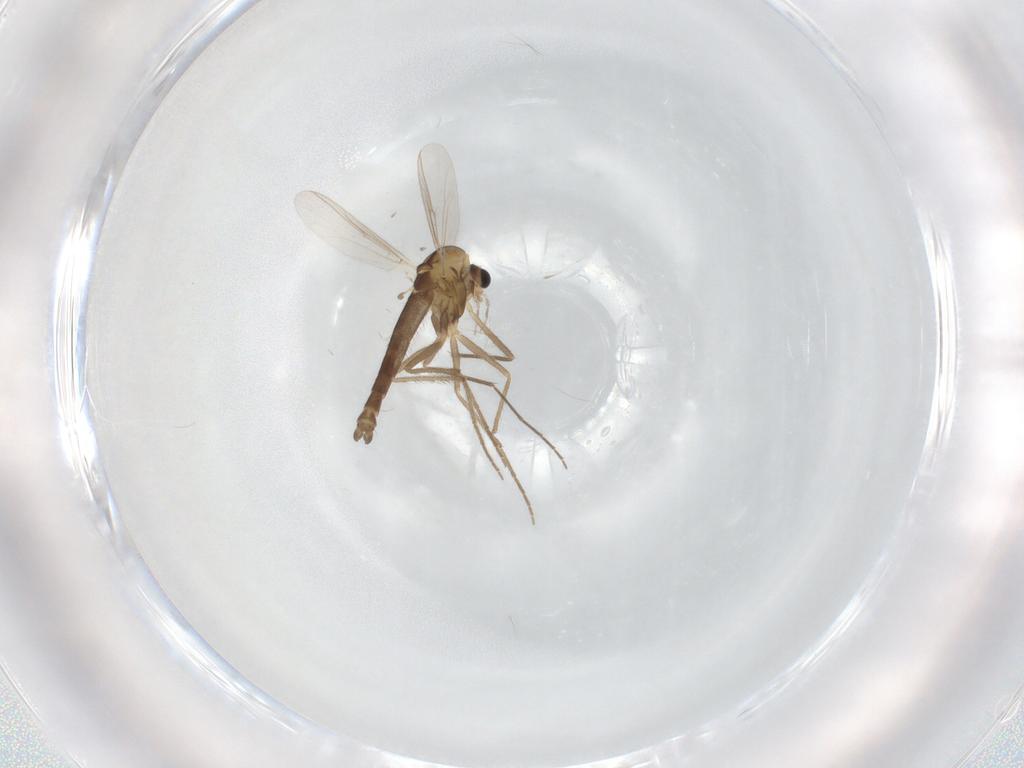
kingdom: Animalia
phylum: Arthropoda
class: Insecta
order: Diptera
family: Chironomidae
